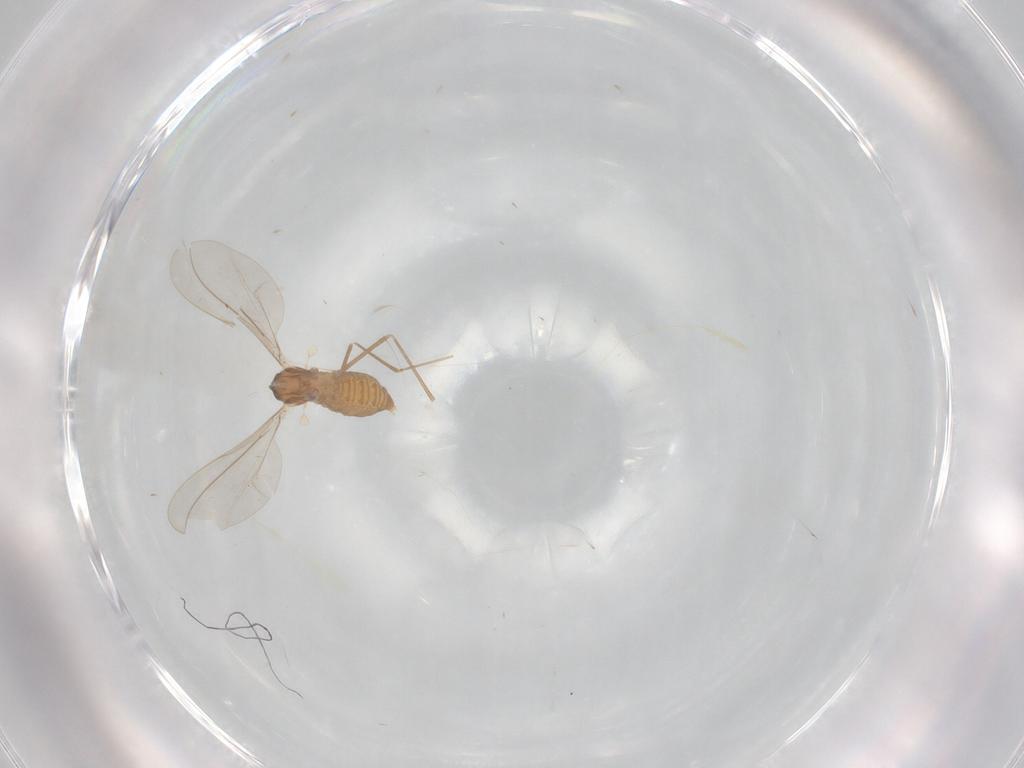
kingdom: Animalia
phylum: Arthropoda
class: Insecta
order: Diptera
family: Cecidomyiidae
